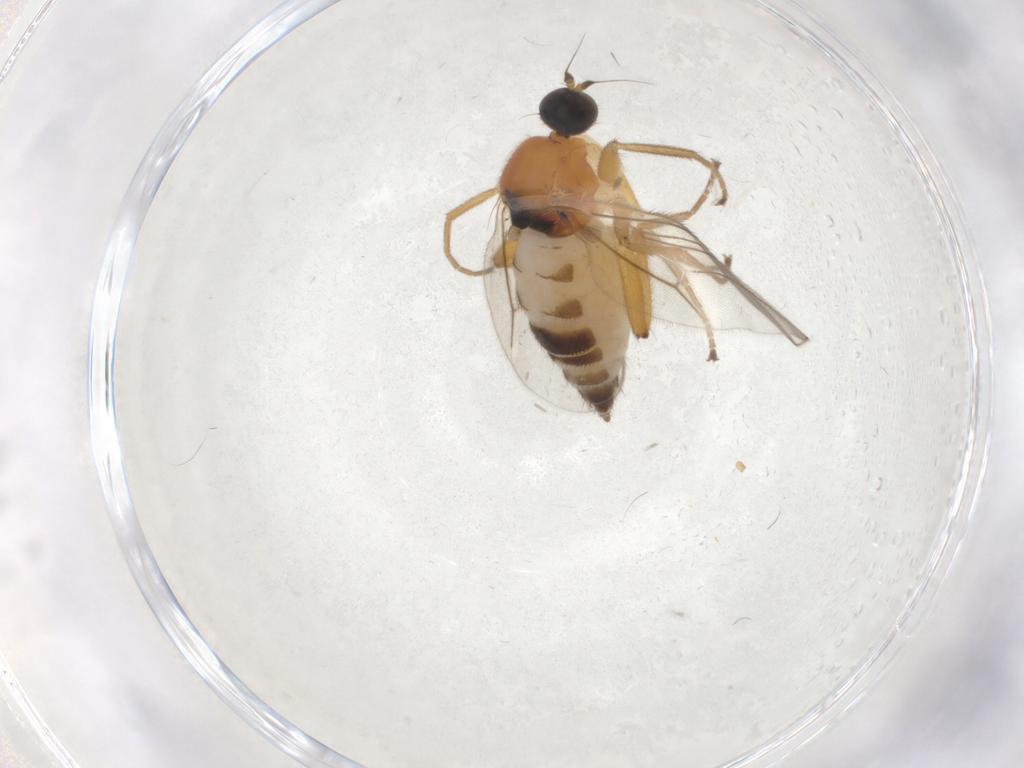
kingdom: Animalia
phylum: Arthropoda
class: Insecta
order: Diptera
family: Hybotidae
